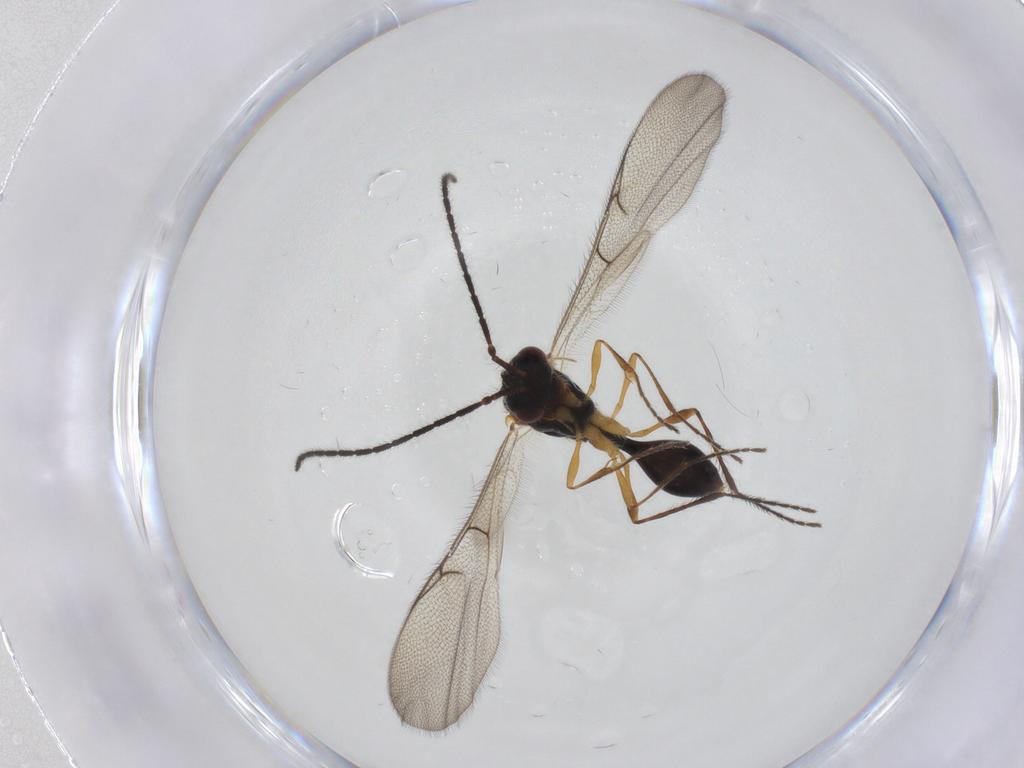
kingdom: Animalia
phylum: Arthropoda
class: Insecta
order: Hymenoptera
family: Diapriidae
